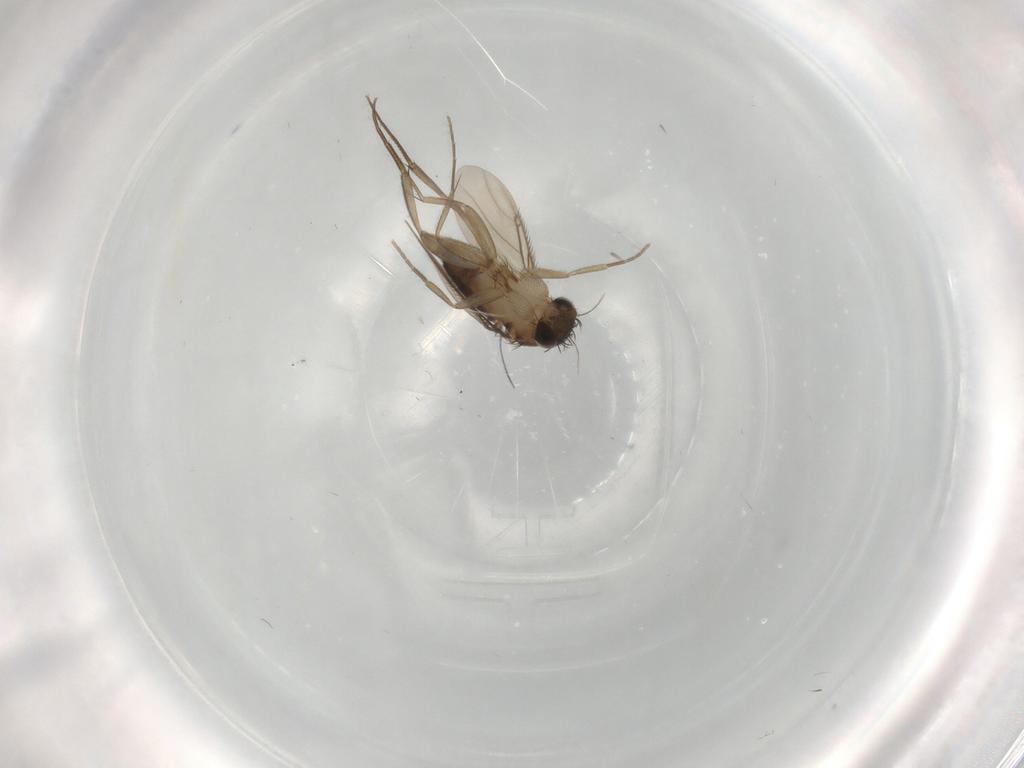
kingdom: Animalia
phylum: Arthropoda
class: Insecta
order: Diptera
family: Phoridae
